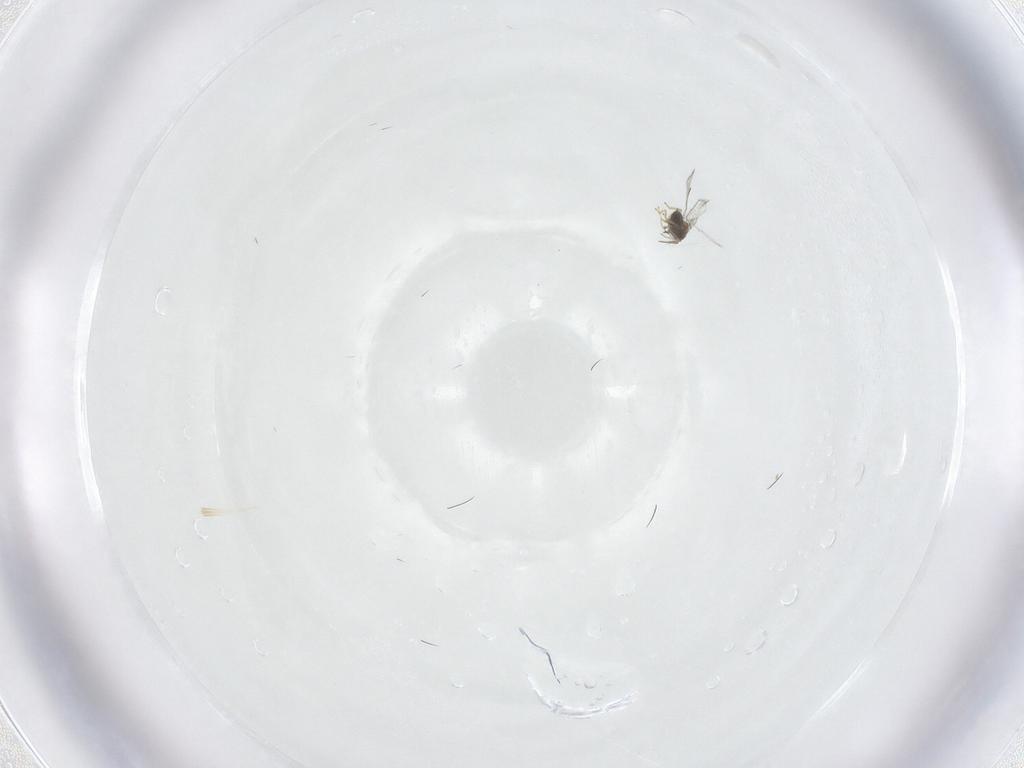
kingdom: Animalia
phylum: Arthropoda
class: Insecta
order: Hymenoptera
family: Trichogrammatidae
